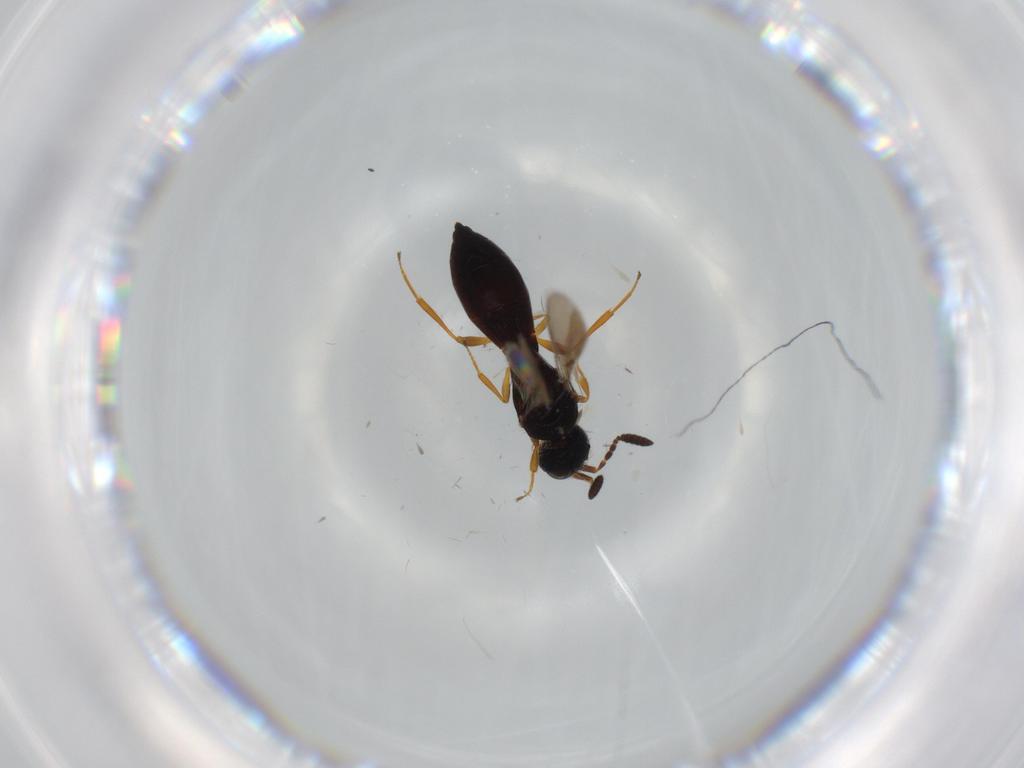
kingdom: Animalia
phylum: Arthropoda
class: Insecta
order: Hymenoptera
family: Scelionidae
